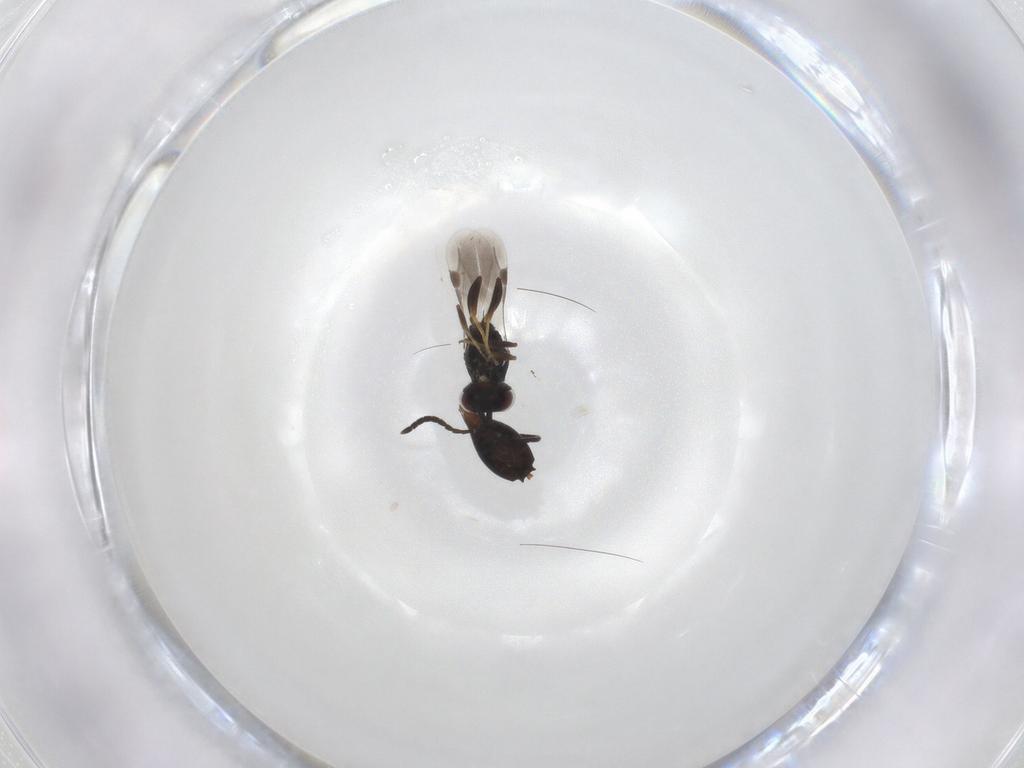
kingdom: Animalia
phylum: Arthropoda
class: Insecta
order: Hymenoptera
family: Megaspilidae
